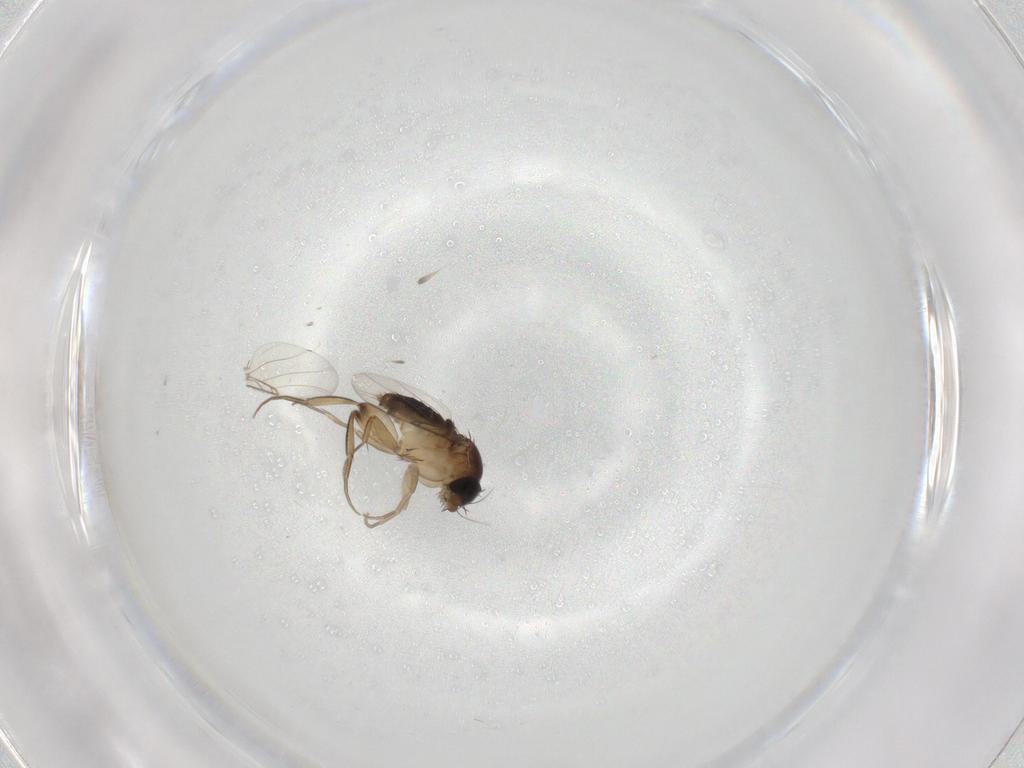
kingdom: Animalia
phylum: Arthropoda
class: Insecta
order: Diptera
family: Phoridae
